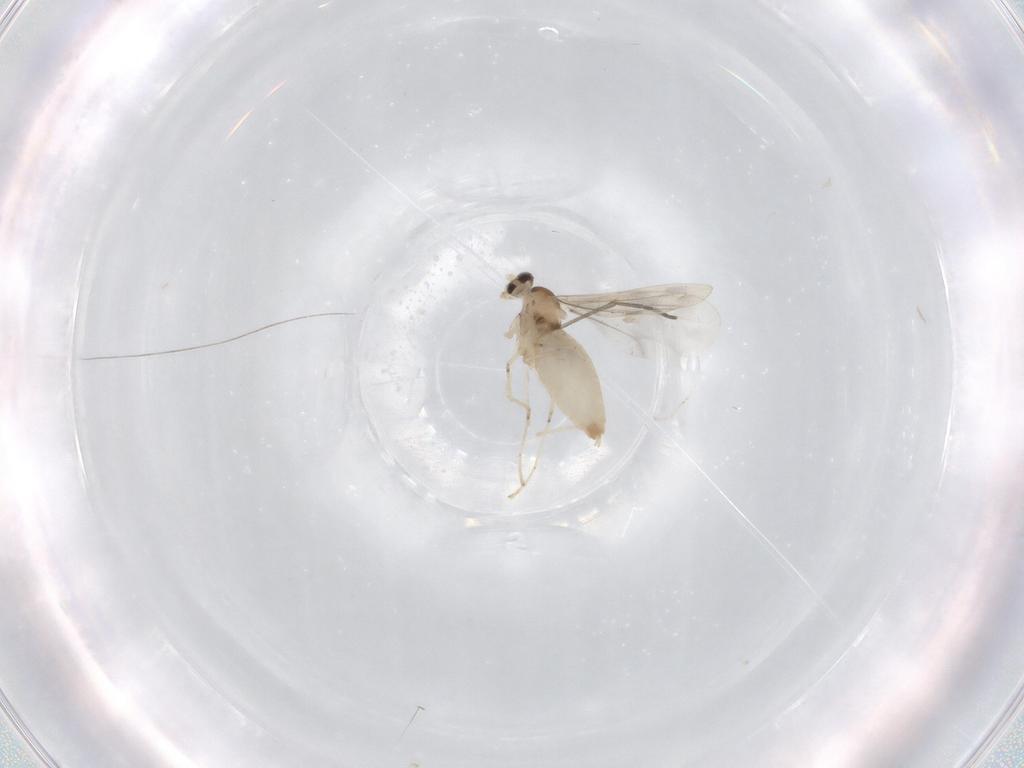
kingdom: Animalia
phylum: Arthropoda
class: Insecta
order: Diptera
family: Cecidomyiidae
